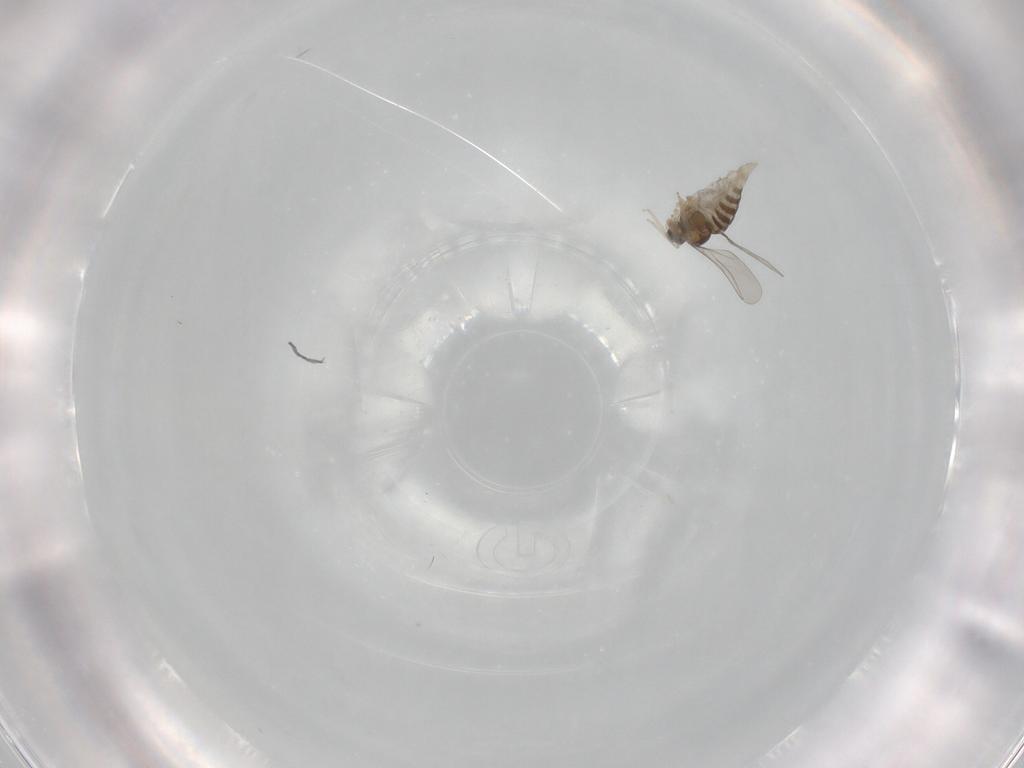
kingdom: Animalia
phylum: Arthropoda
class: Insecta
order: Diptera
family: Cecidomyiidae
